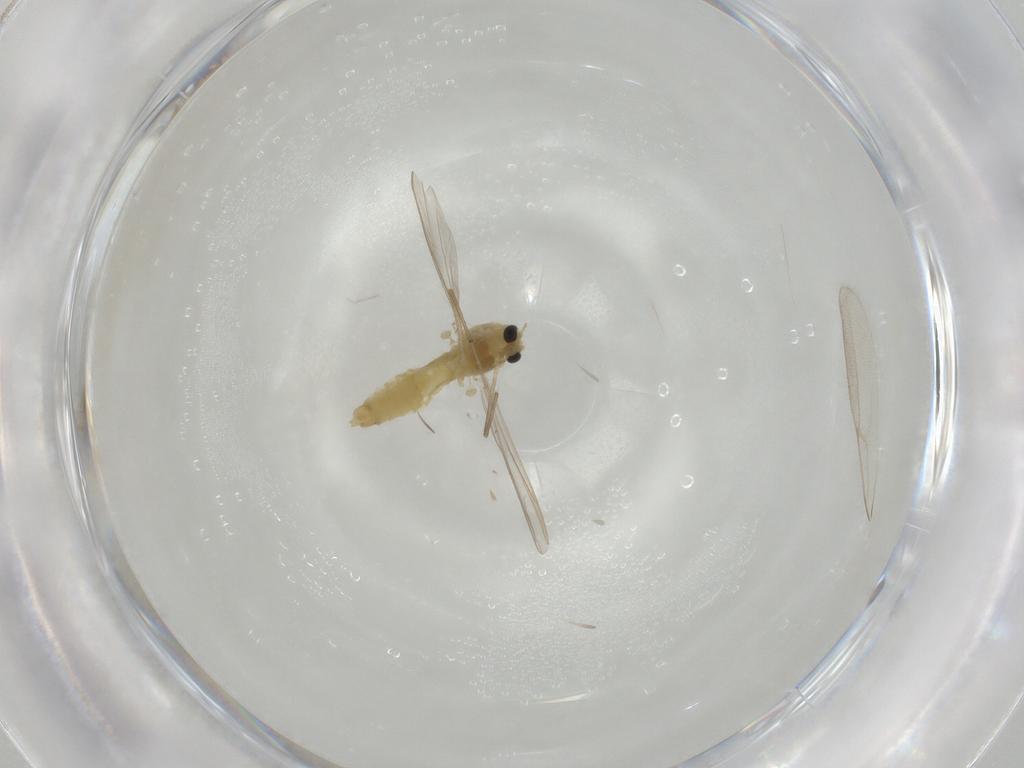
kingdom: Animalia
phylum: Arthropoda
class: Insecta
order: Diptera
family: Chironomidae
